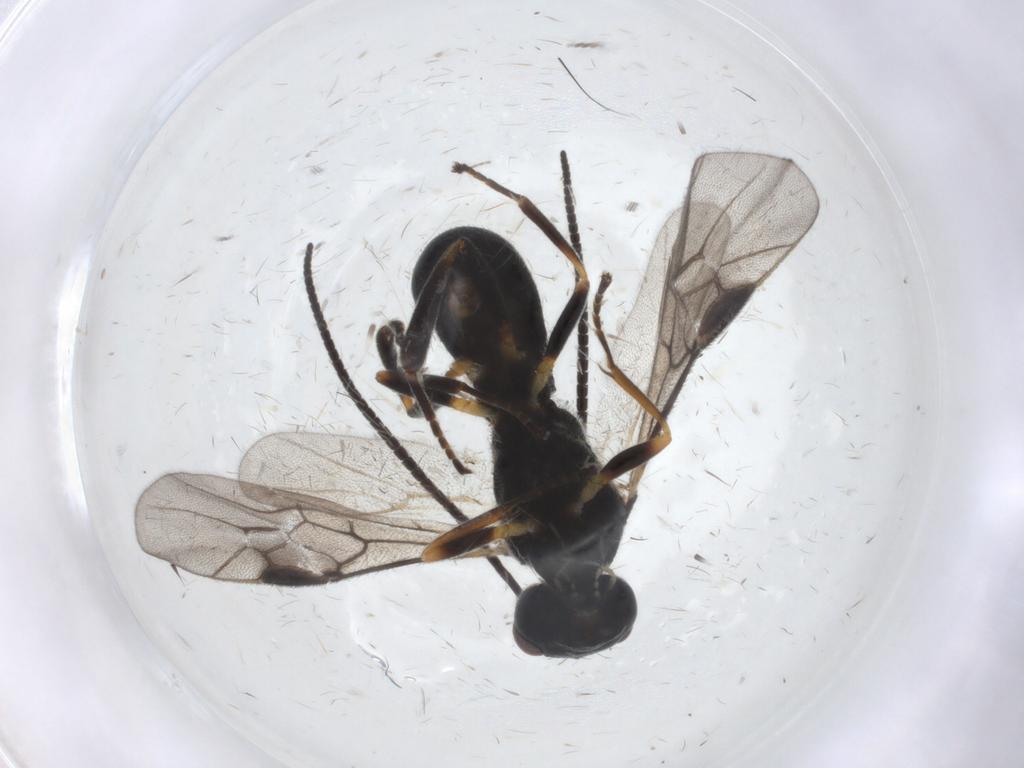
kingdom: Animalia
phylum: Arthropoda
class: Insecta
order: Hymenoptera
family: Braconidae
